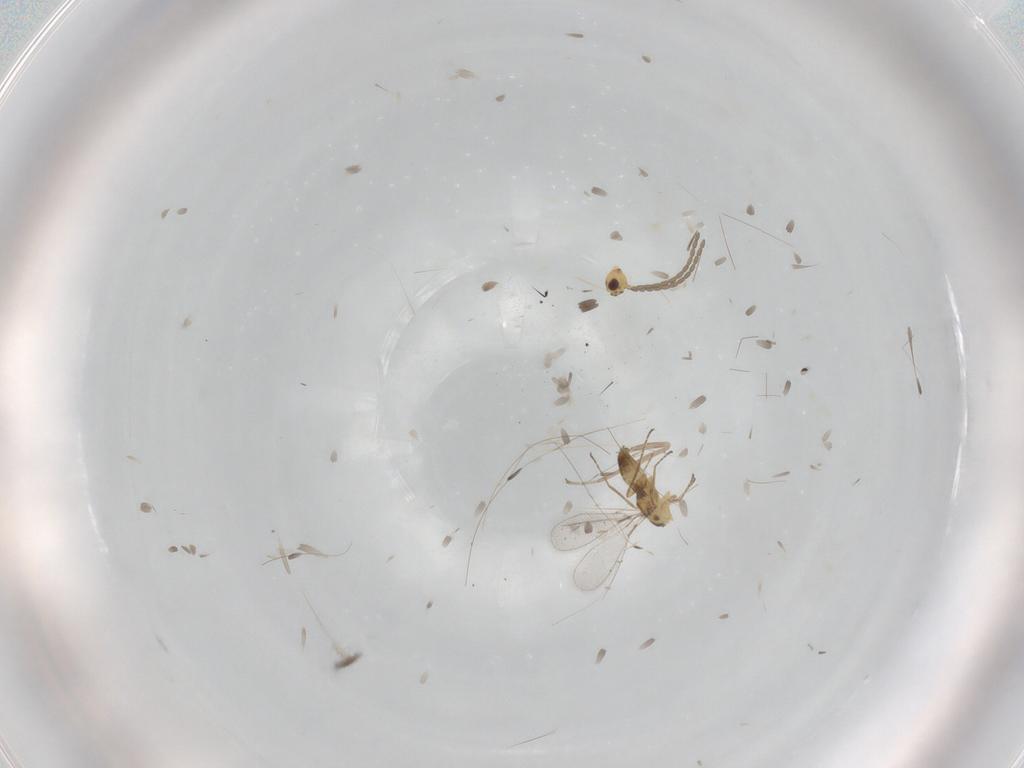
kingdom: Animalia
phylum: Arthropoda
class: Insecta
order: Hymenoptera
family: Mymaridae
